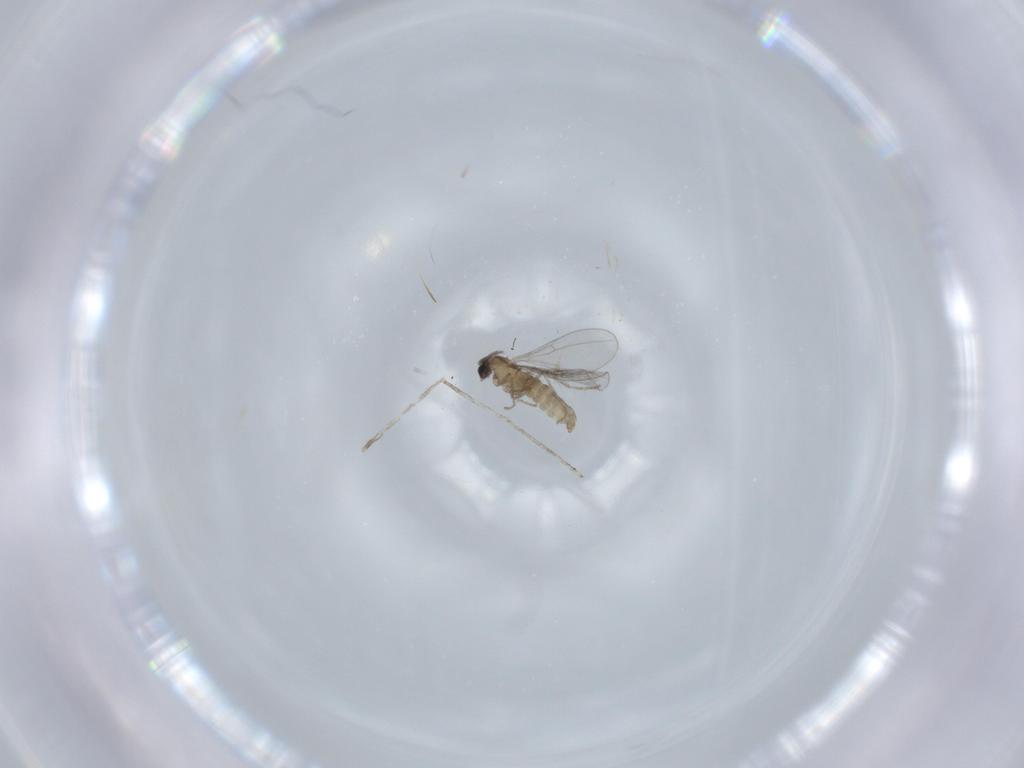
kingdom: Animalia
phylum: Arthropoda
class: Insecta
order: Diptera
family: Cecidomyiidae
